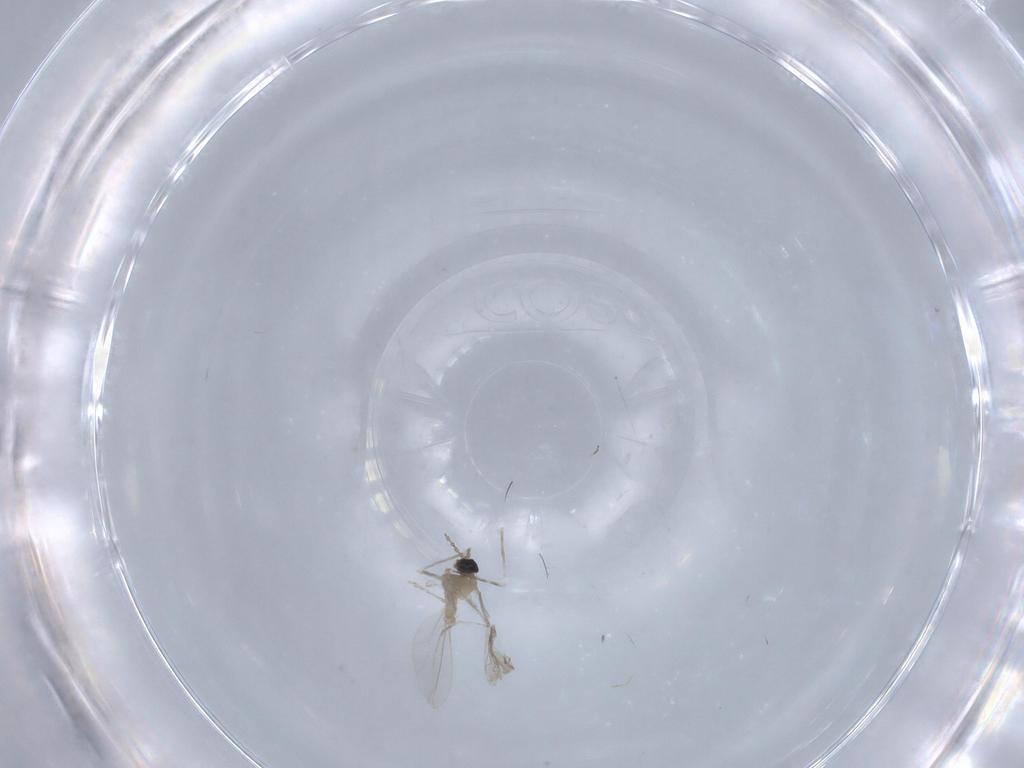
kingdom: Animalia
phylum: Arthropoda
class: Insecta
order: Diptera
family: Cecidomyiidae
